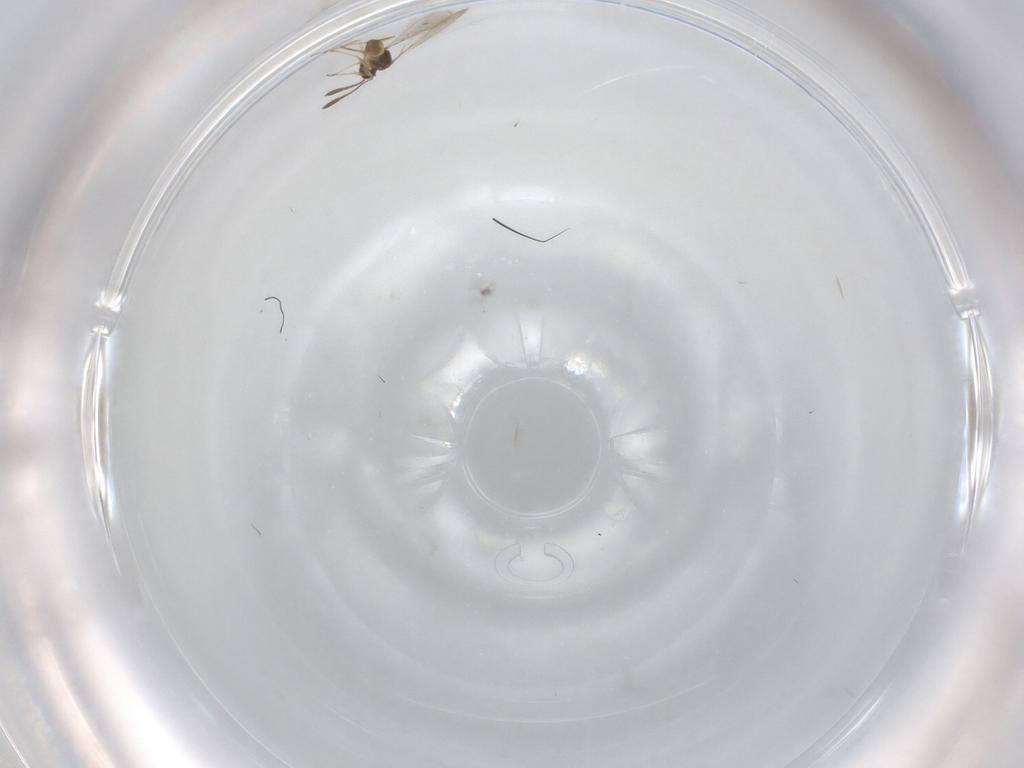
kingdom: Animalia
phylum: Arthropoda
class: Insecta
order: Hymenoptera
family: Mymaridae
